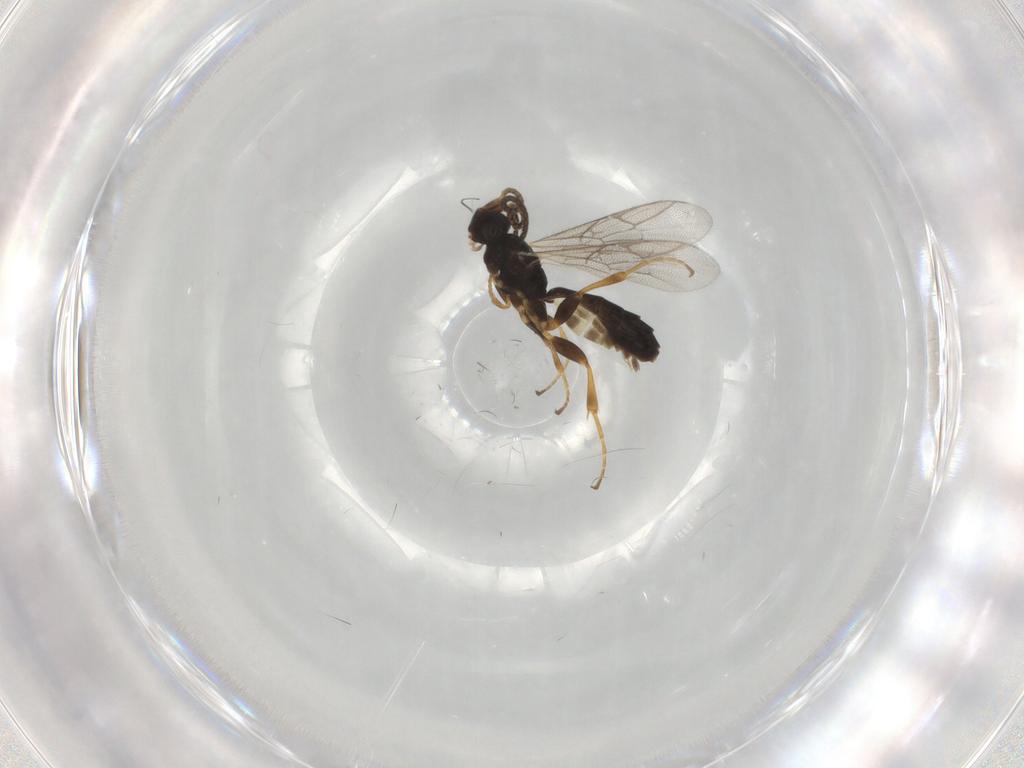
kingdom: Animalia
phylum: Arthropoda
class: Insecta
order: Hymenoptera
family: Ichneumonidae
